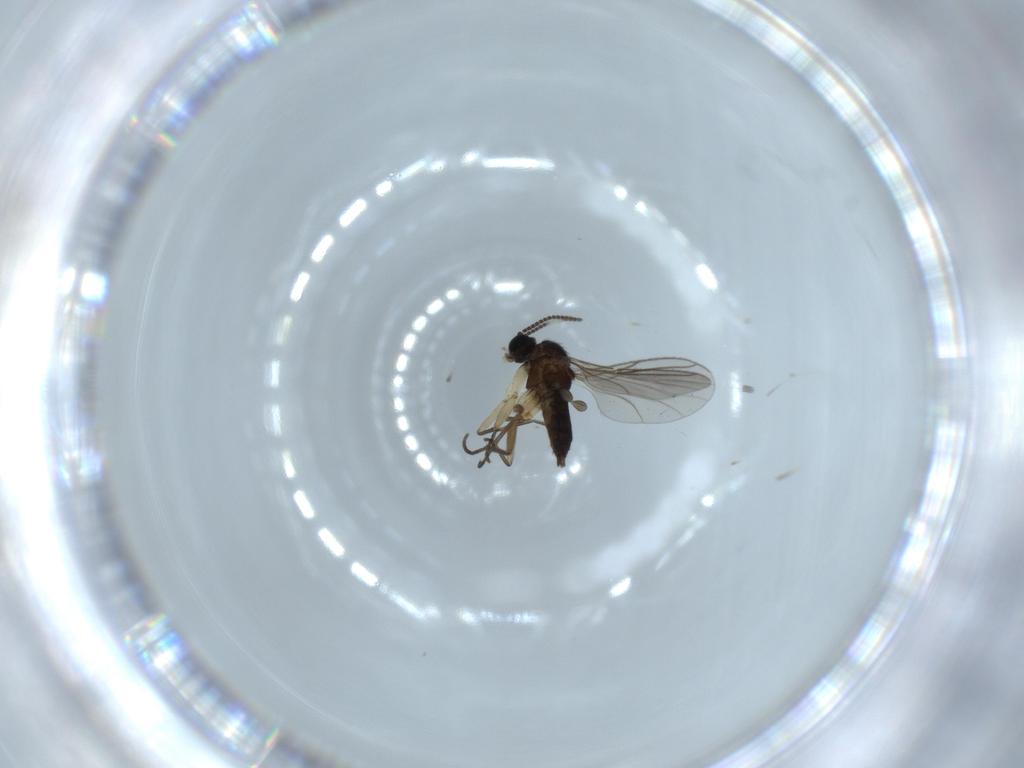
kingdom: Animalia
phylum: Arthropoda
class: Insecta
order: Diptera
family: Sciaridae
